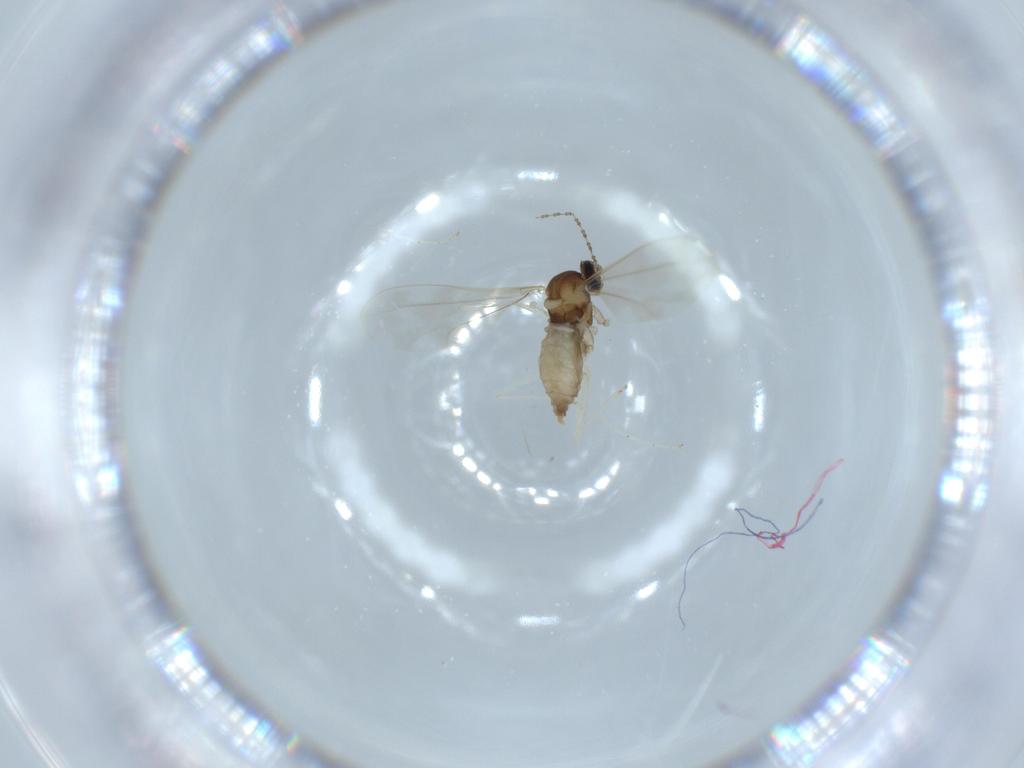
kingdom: Animalia
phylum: Arthropoda
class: Insecta
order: Diptera
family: Cecidomyiidae
